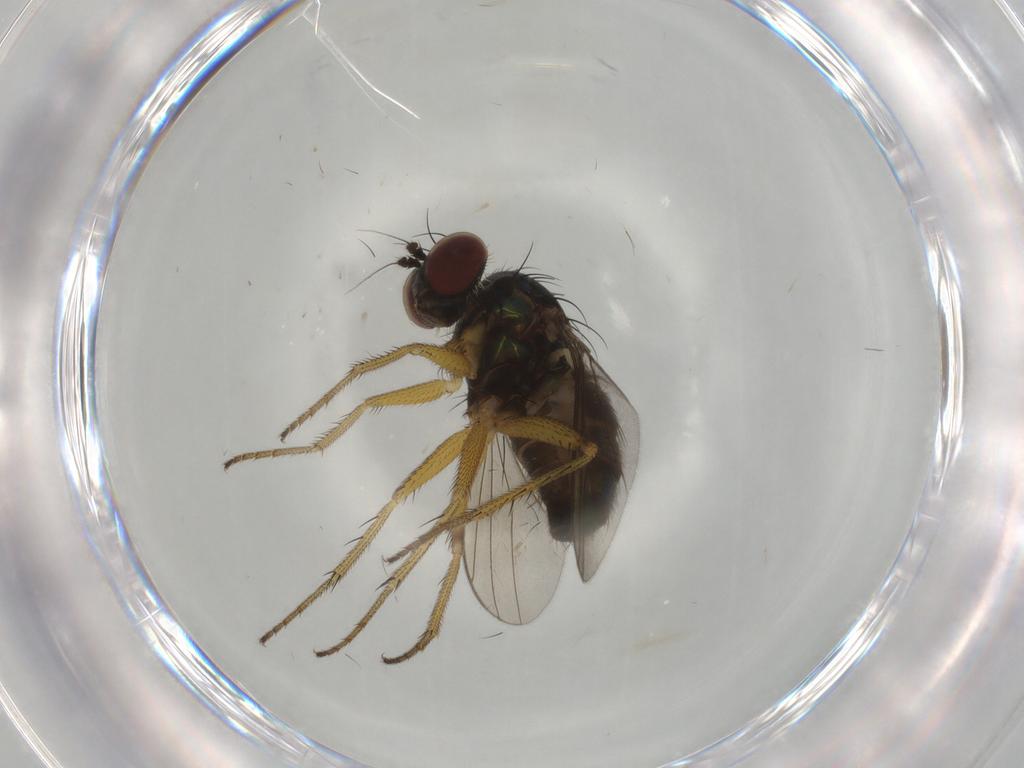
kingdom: Animalia
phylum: Arthropoda
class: Insecta
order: Diptera
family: Dolichopodidae
